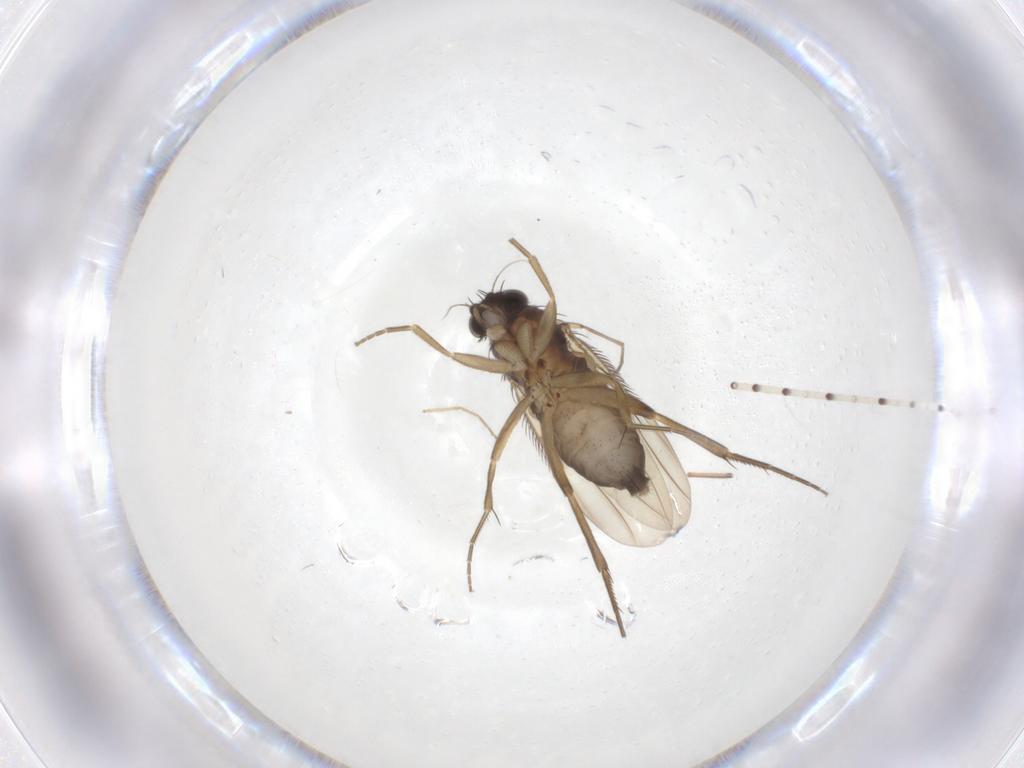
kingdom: Animalia
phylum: Arthropoda
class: Insecta
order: Diptera
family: Phoridae
